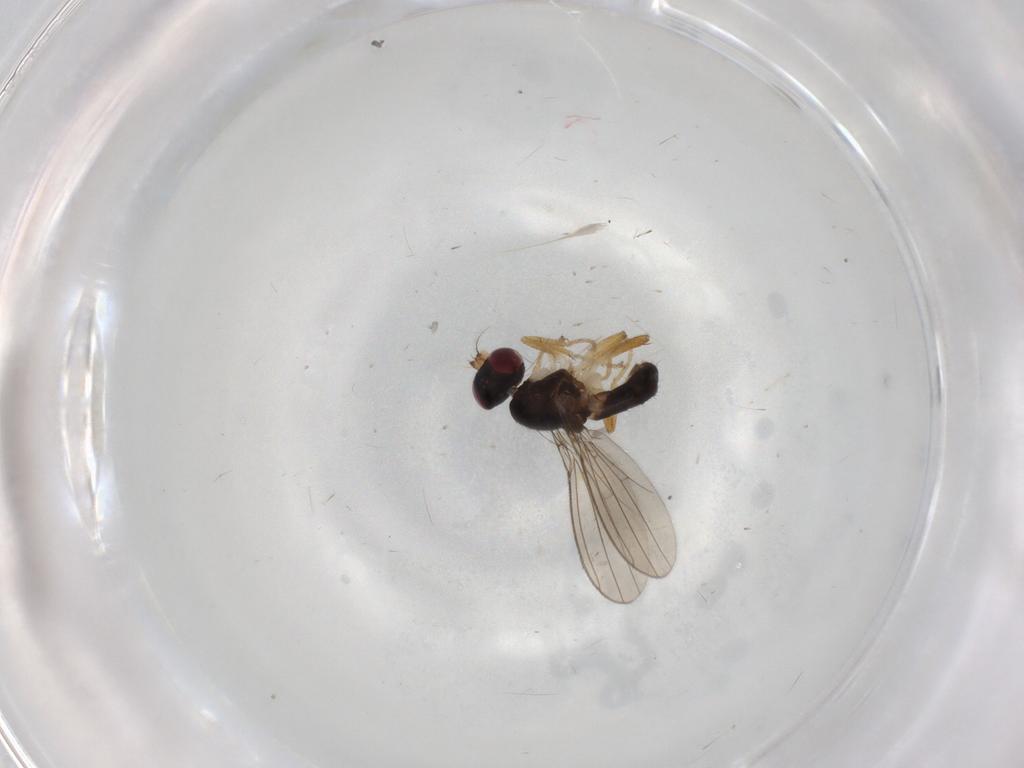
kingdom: Animalia
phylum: Arthropoda
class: Insecta
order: Diptera
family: Anthomyzidae
